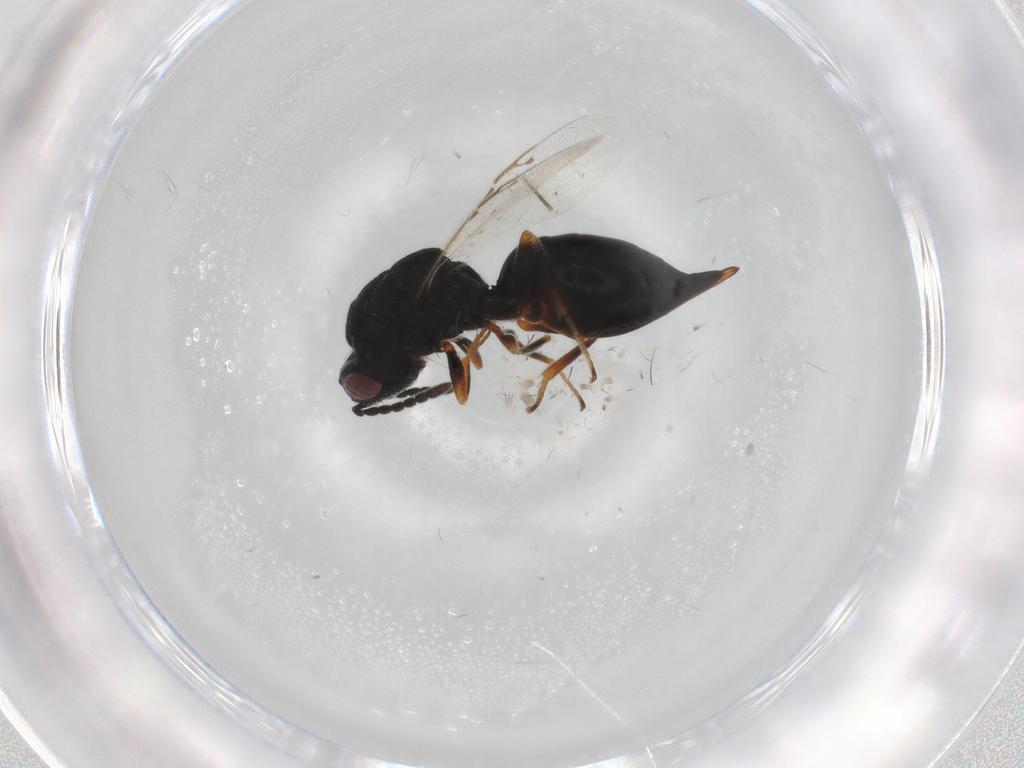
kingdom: Animalia
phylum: Arthropoda
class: Insecta
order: Hymenoptera
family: Eurytomidae
